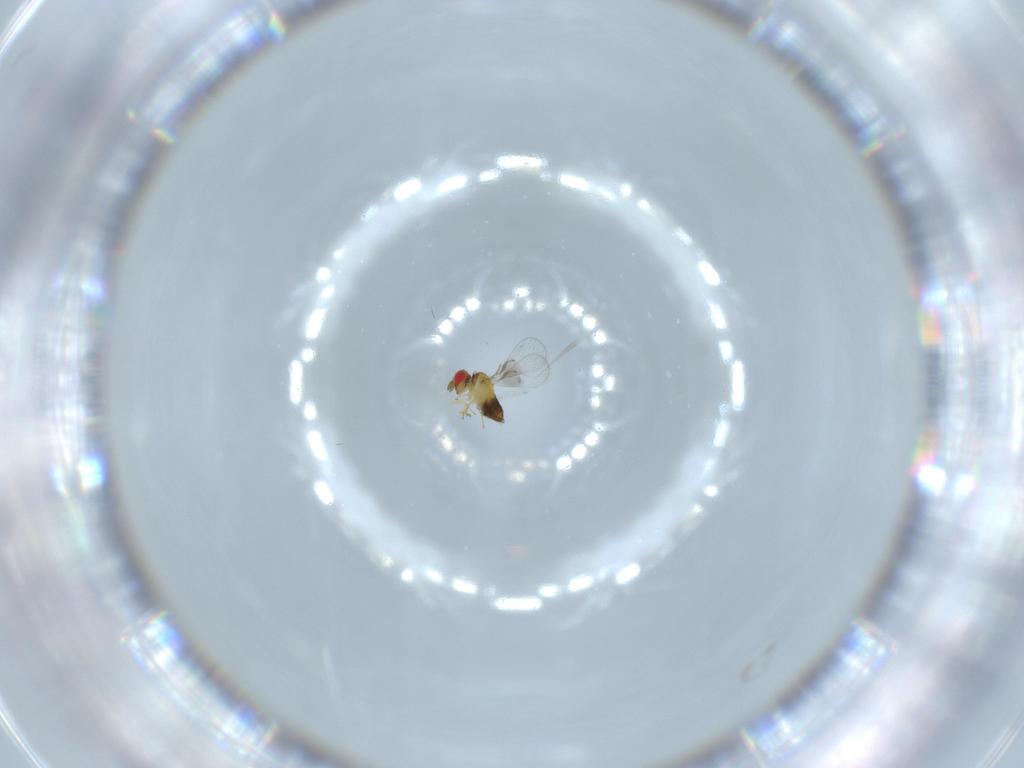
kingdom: Animalia
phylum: Arthropoda
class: Insecta
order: Hymenoptera
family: Trichogrammatidae
